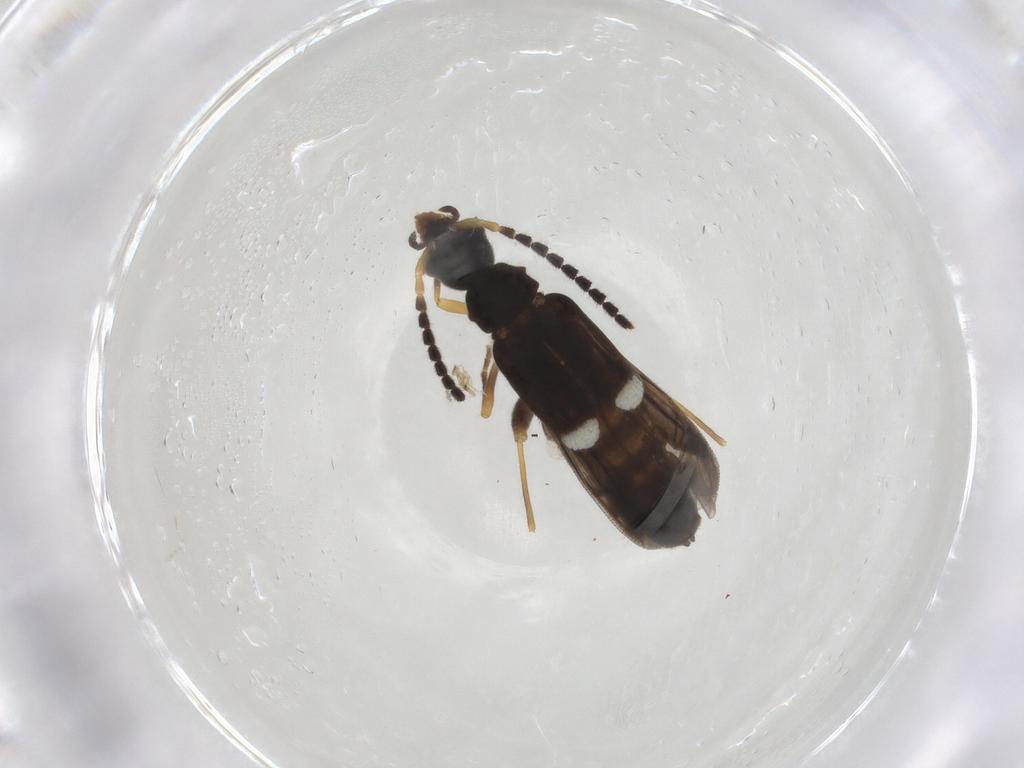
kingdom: Animalia
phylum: Arthropoda
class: Insecta
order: Coleoptera
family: Cantharidae
